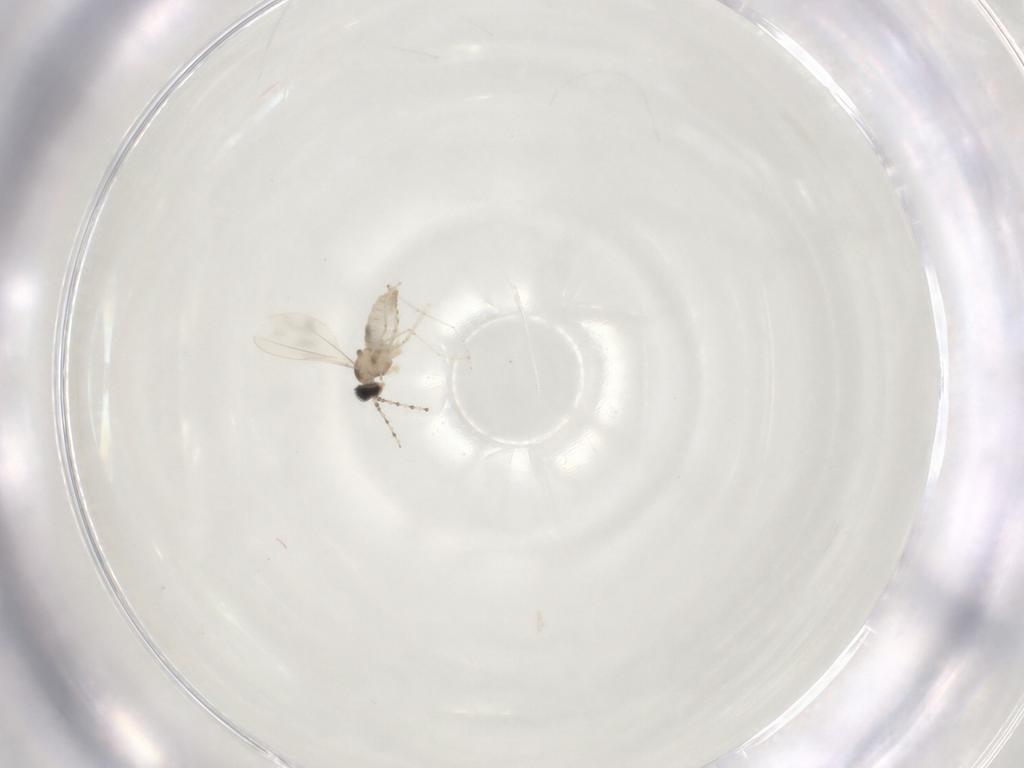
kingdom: Animalia
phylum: Arthropoda
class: Insecta
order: Diptera
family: Cecidomyiidae
